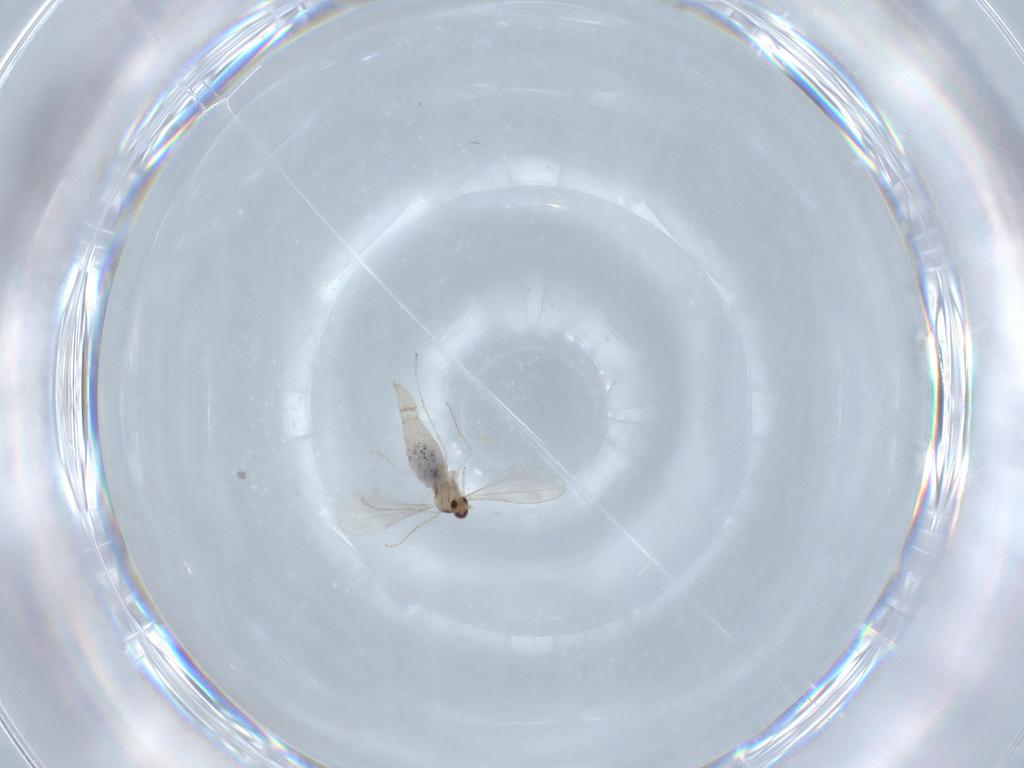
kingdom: Animalia
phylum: Arthropoda
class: Insecta
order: Diptera
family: Cecidomyiidae
